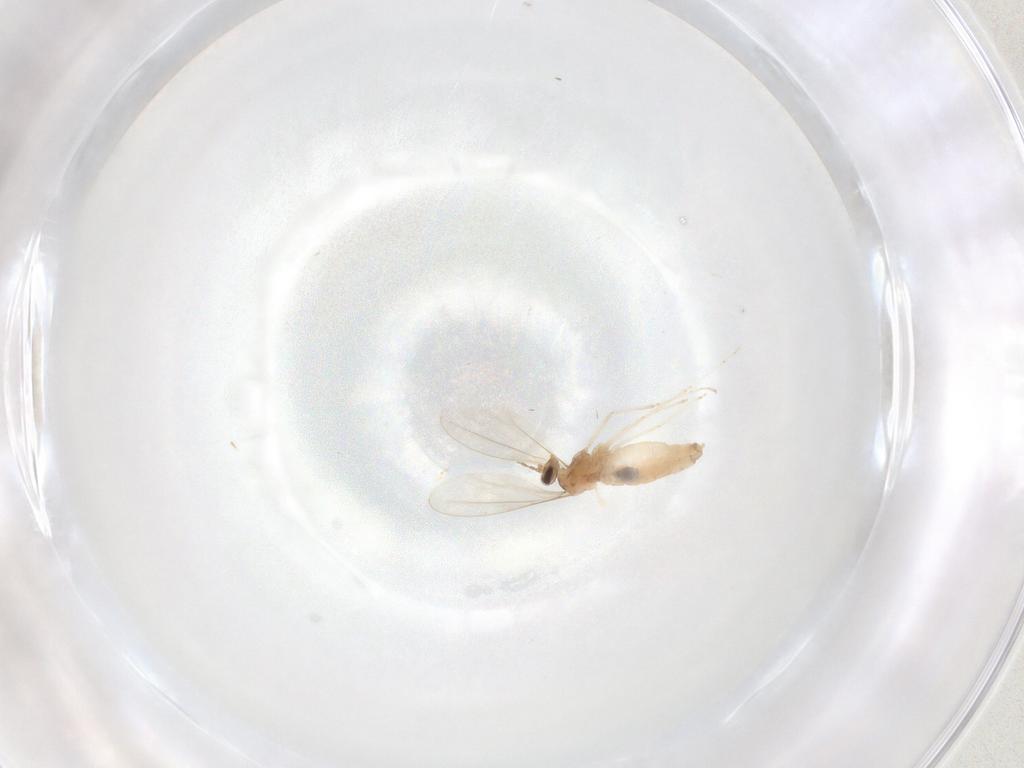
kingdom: Animalia
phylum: Arthropoda
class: Insecta
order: Diptera
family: Cecidomyiidae
